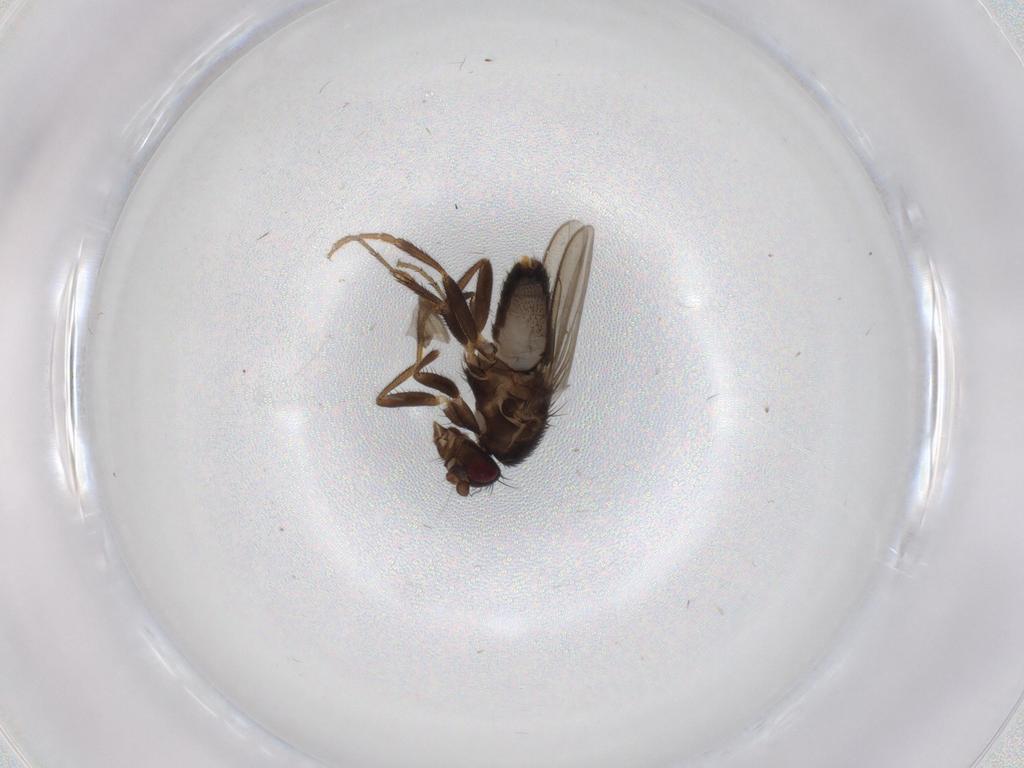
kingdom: Animalia
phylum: Arthropoda
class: Insecta
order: Diptera
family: Sphaeroceridae
